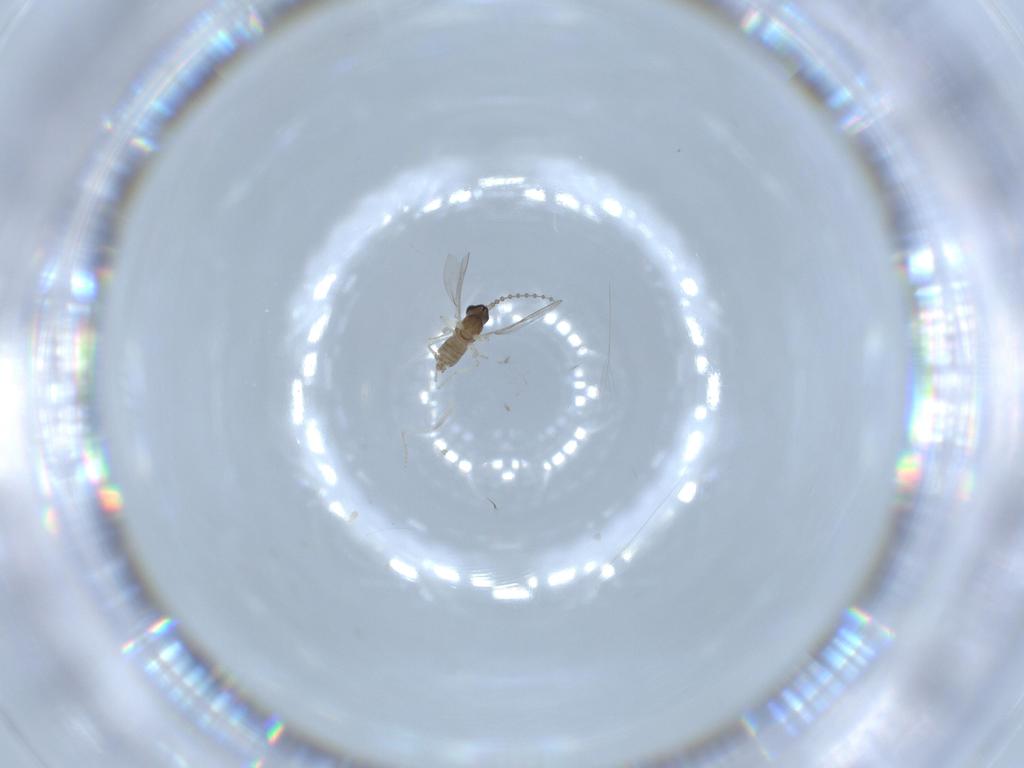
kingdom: Animalia
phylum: Arthropoda
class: Insecta
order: Diptera
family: Cecidomyiidae
